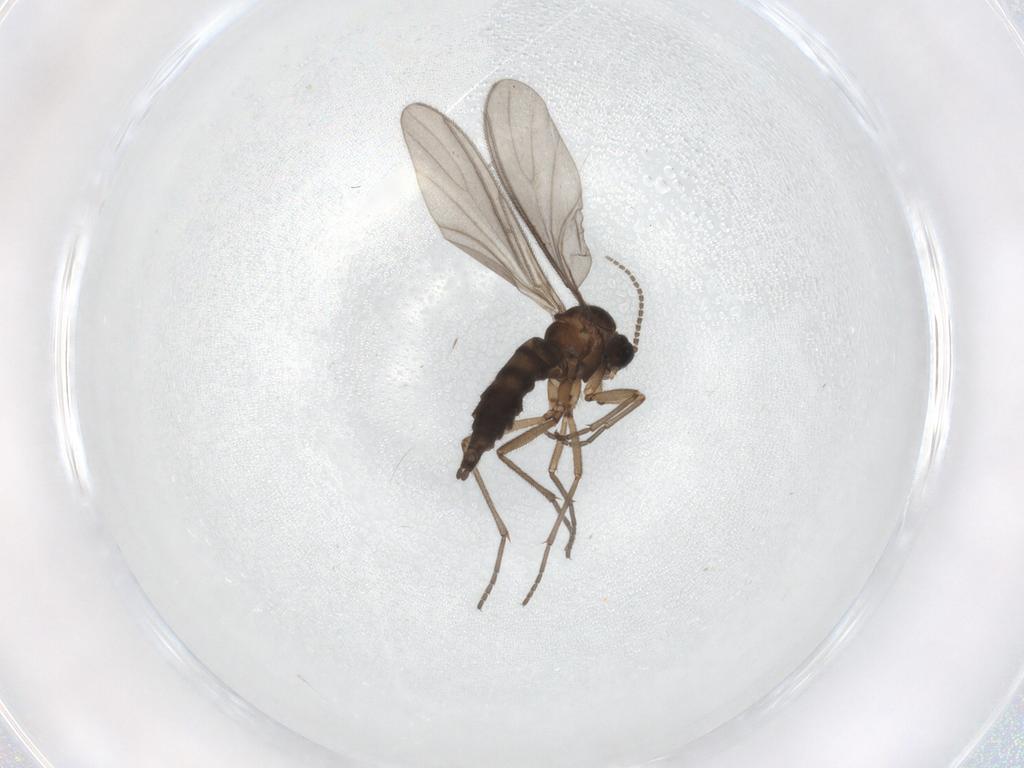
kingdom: Animalia
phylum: Arthropoda
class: Insecta
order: Diptera
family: Sciaridae
